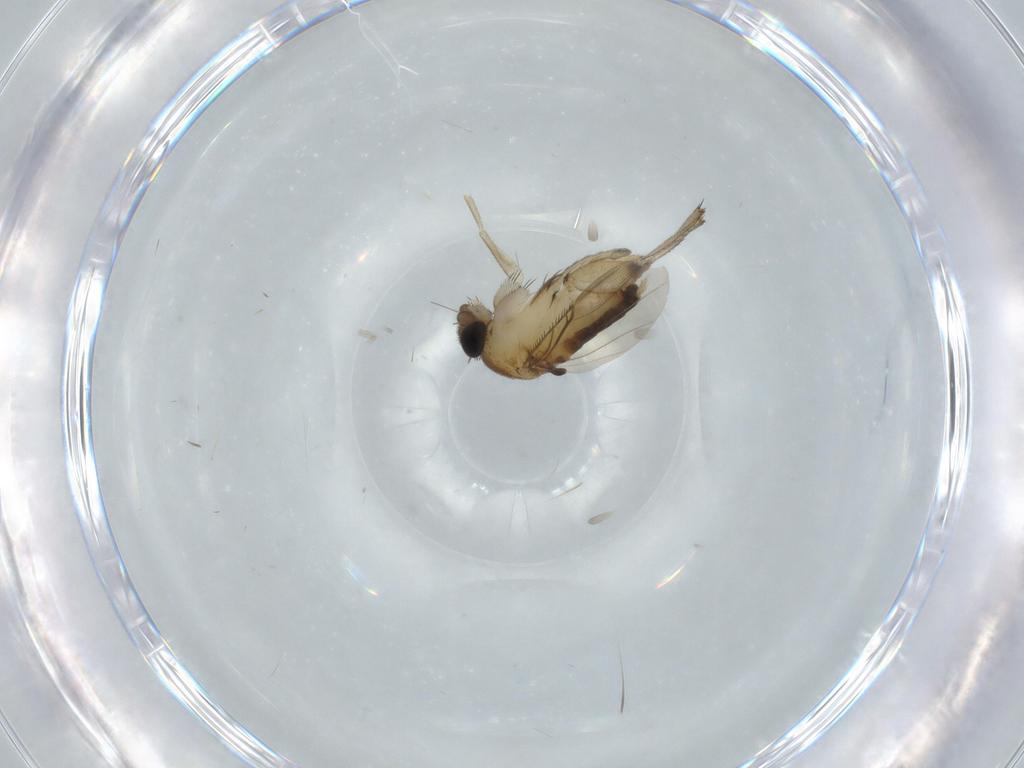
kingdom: Animalia
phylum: Arthropoda
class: Insecta
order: Diptera
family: Phoridae
